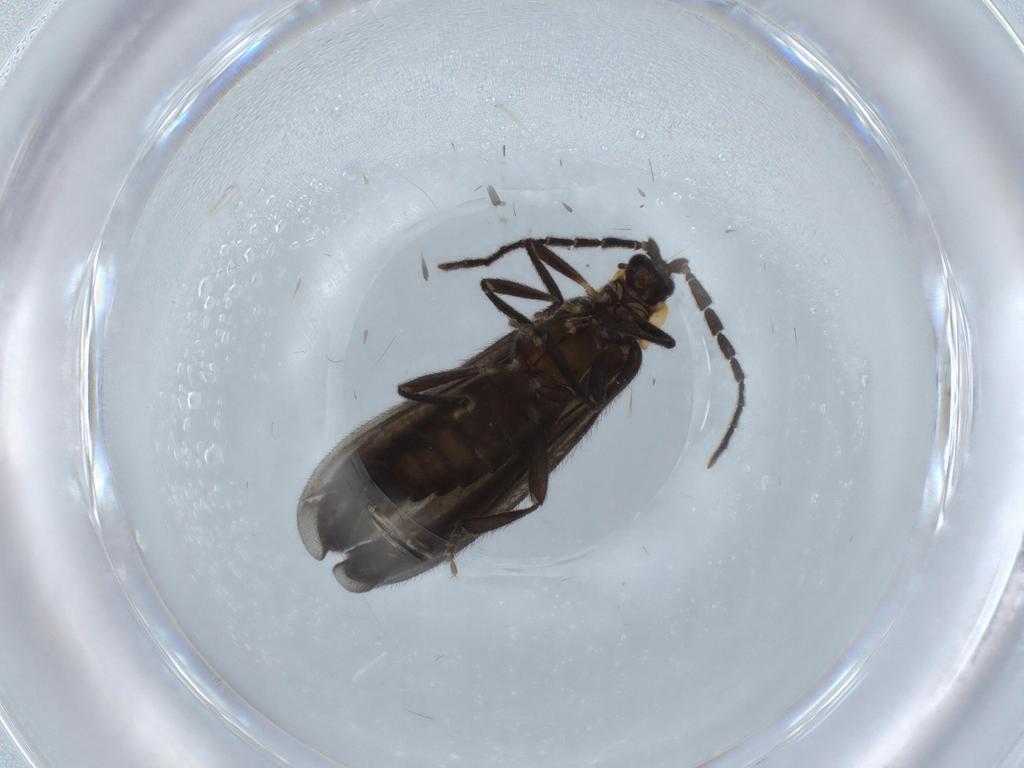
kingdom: Animalia
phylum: Arthropoda
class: Insecta
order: Coleoptera
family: Lycidae
